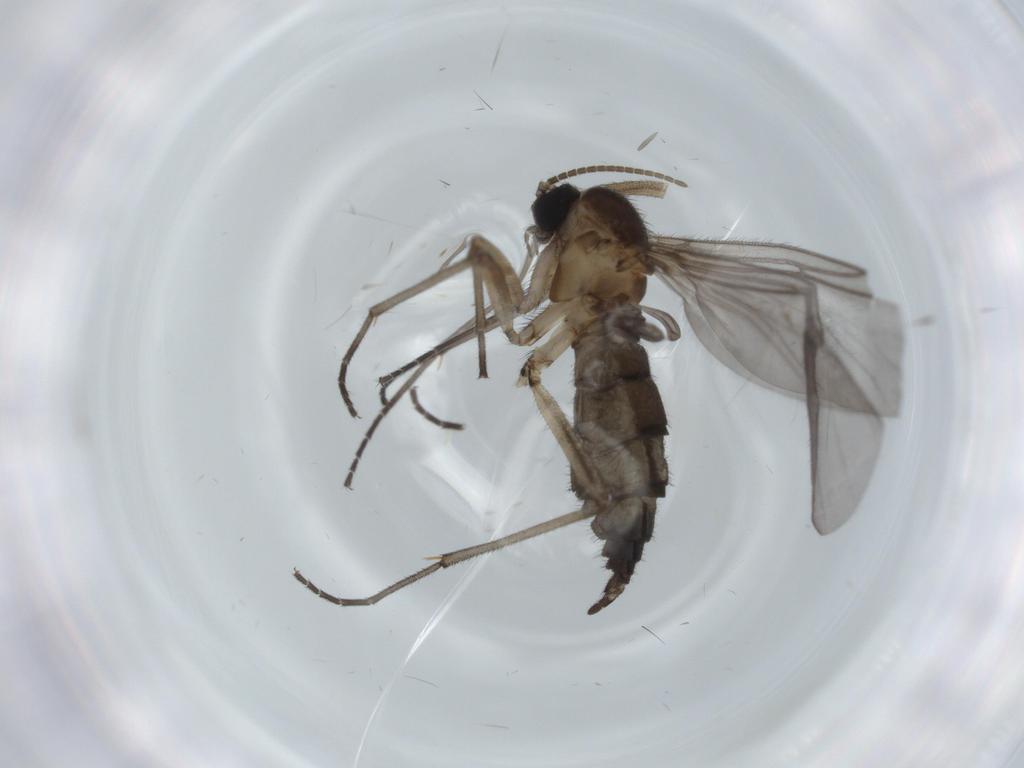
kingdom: Animalia
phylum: Arthropoda
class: Insecta
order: Diptera
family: Sciaridae
